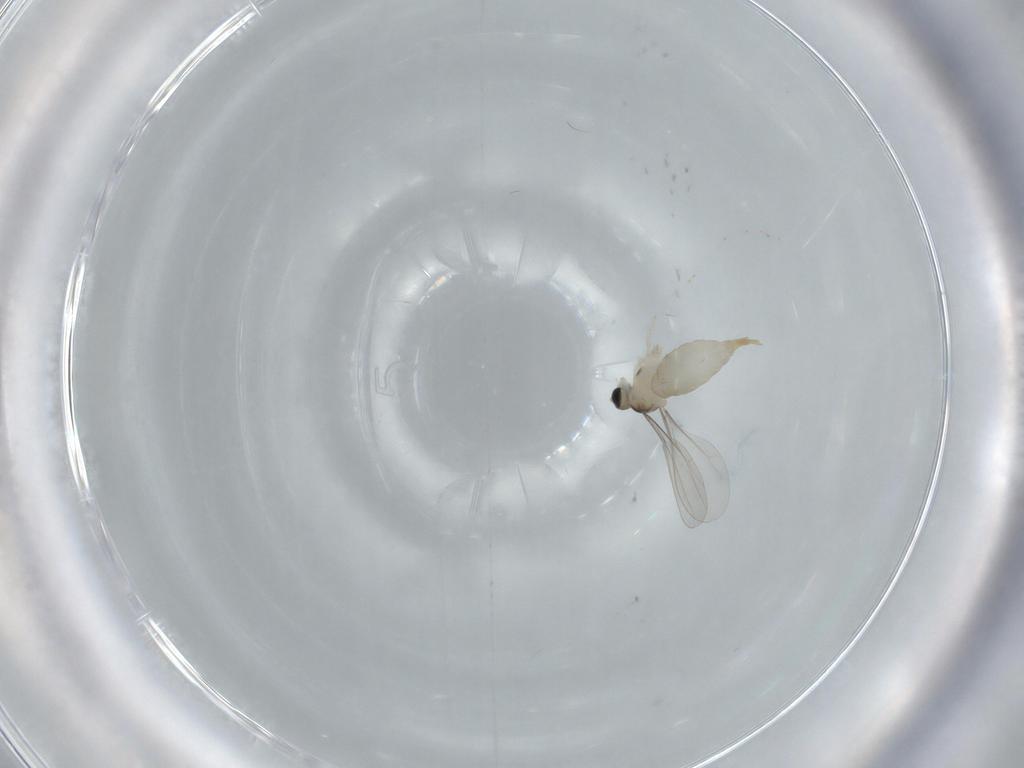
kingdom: Animalia
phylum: Arthropoda
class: Insecta
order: Diptera
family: Chironomidae
